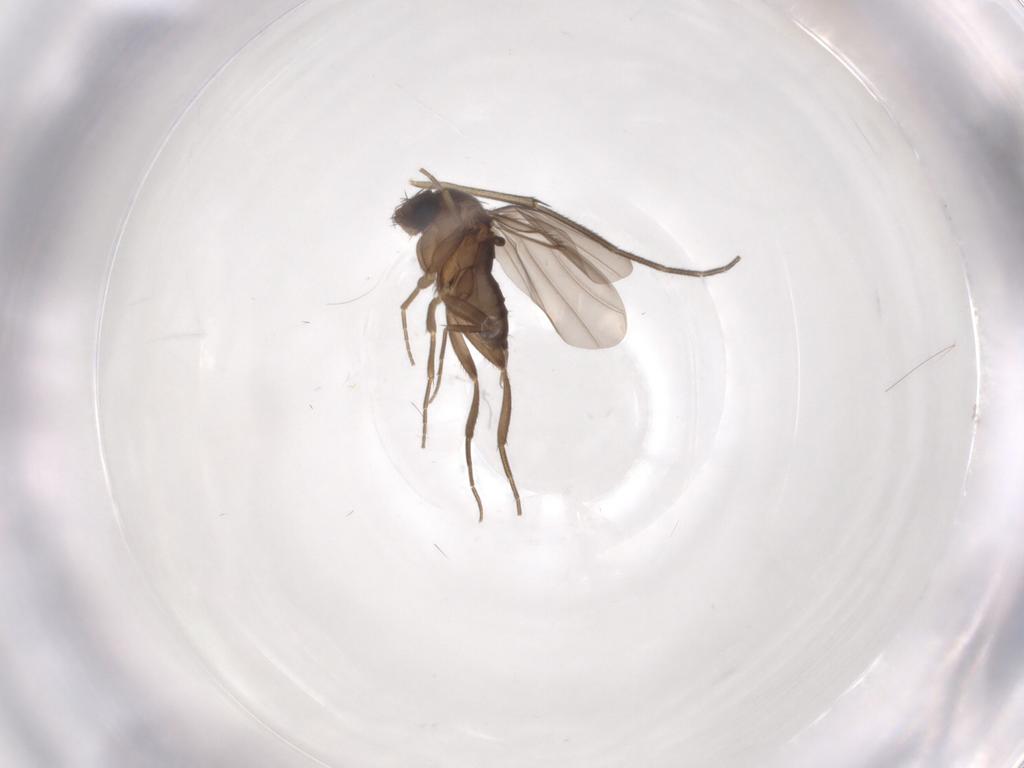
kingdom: Animalia
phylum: Arthropoda
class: Insecta
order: Diptera
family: Phoridae
